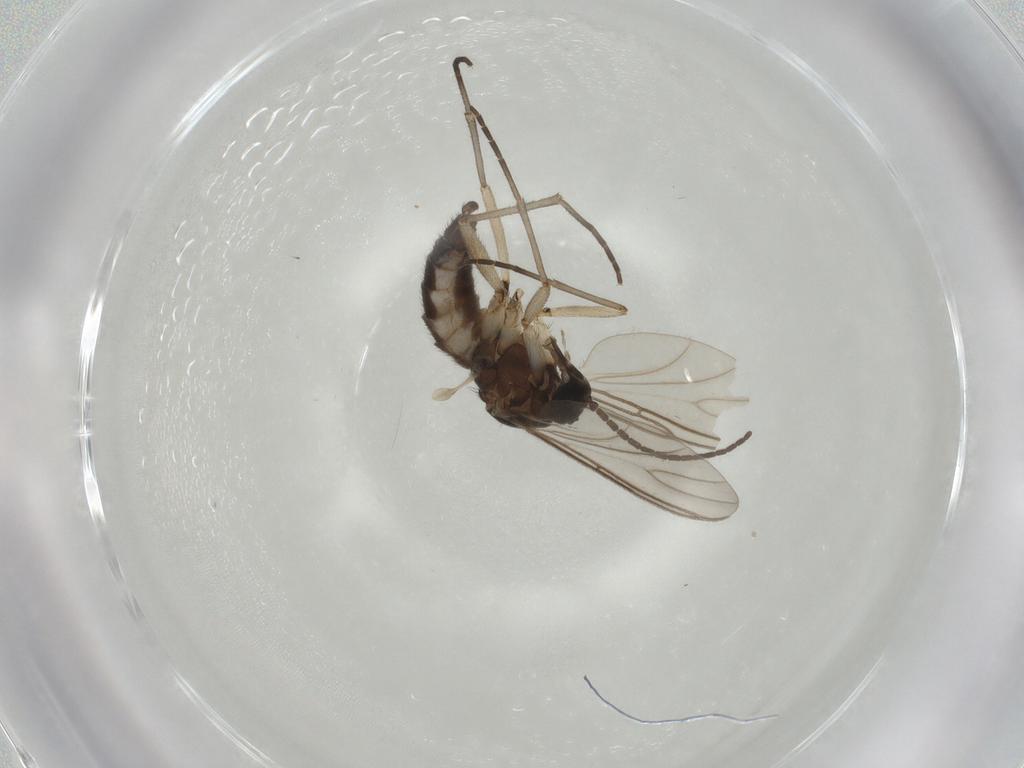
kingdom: Animalia
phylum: Arthropoda
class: Insecta
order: Diptera
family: Sciaridae
